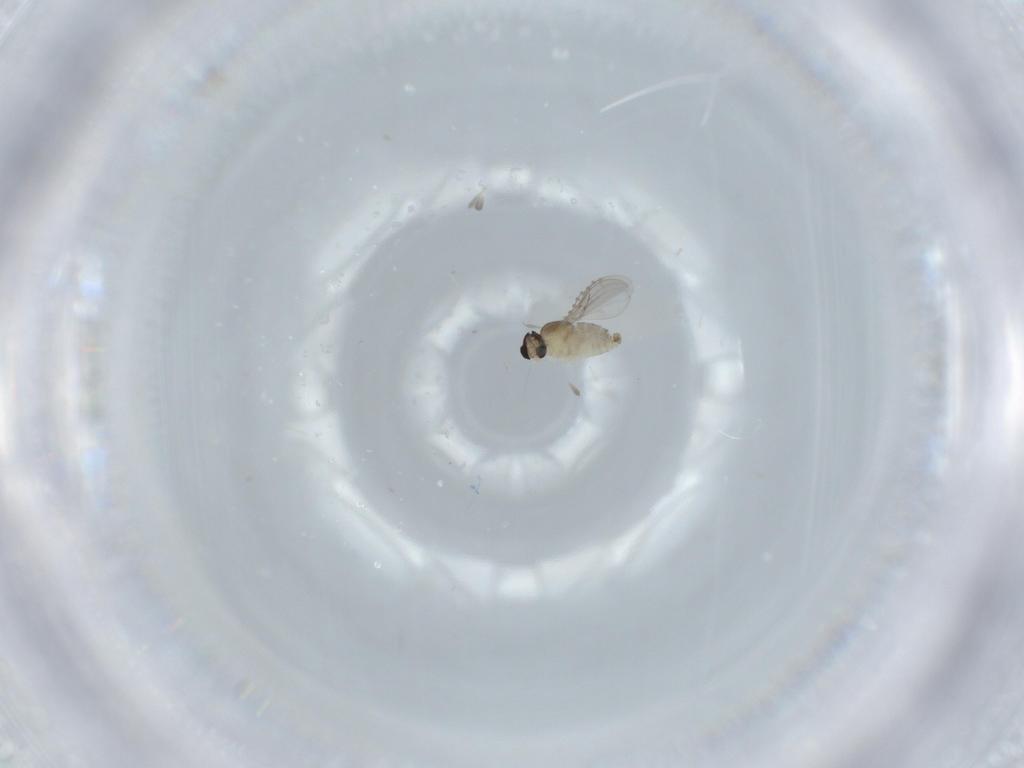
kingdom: Animalia
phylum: Arthropoda
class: Insecta
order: Diptera
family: Cecidomyiidae
